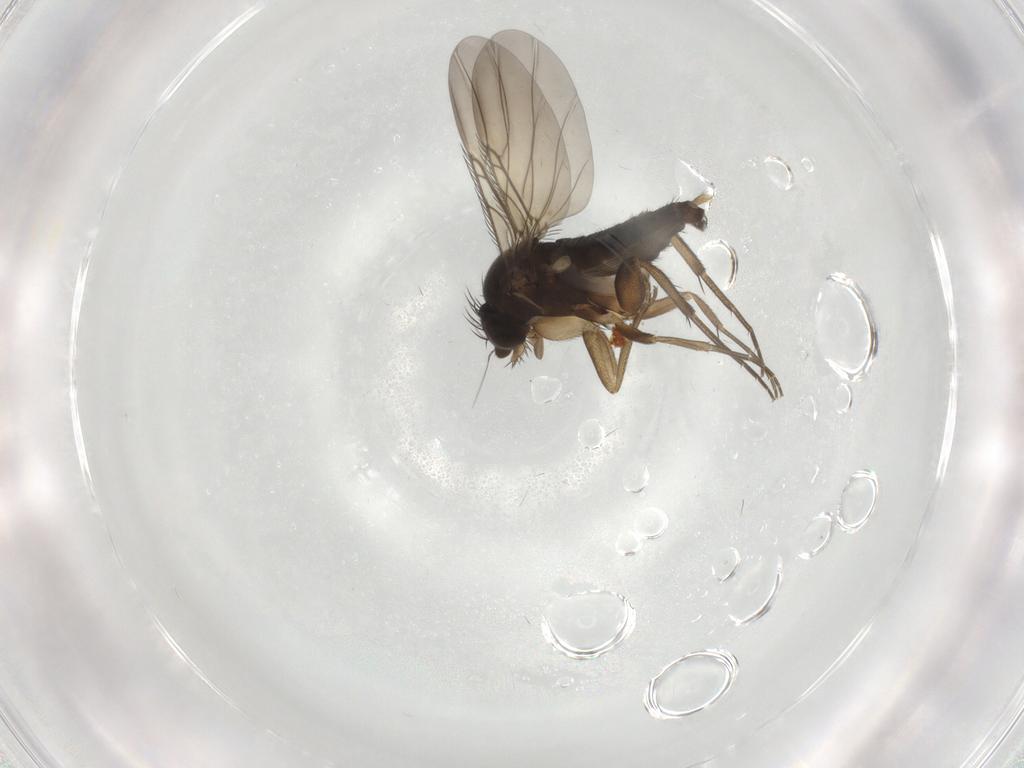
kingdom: Animalia
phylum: Arthropoda
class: Insecta
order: Diptera
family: Phoridae
